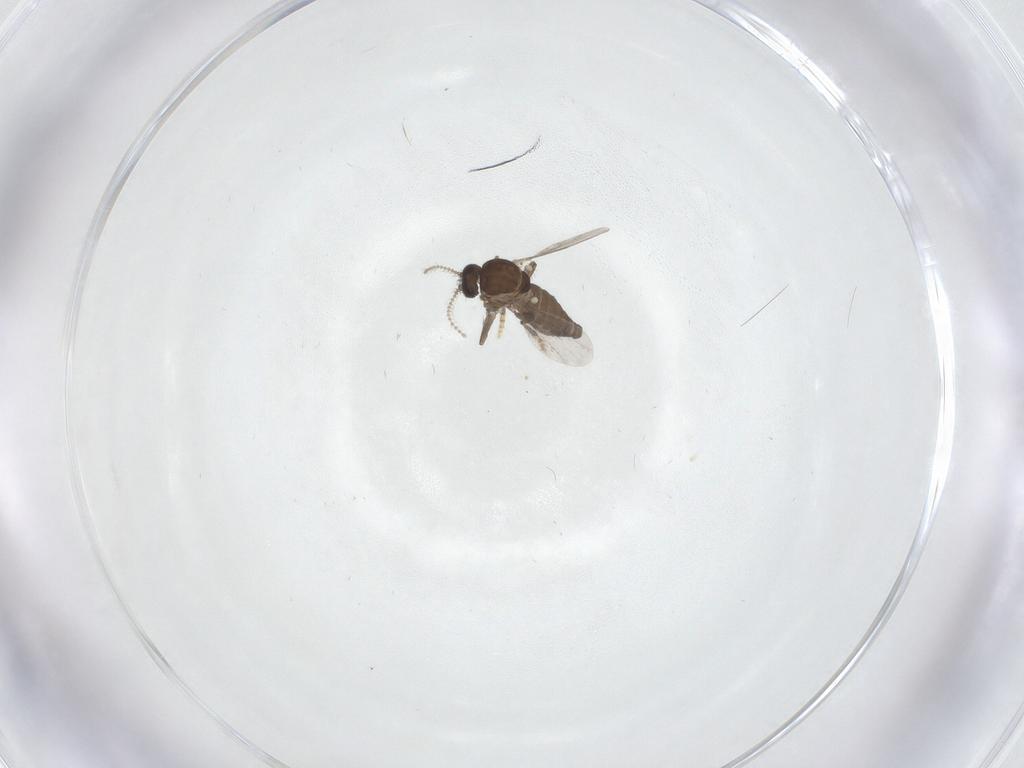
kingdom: Animalia
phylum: Arthropoda
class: Insecta
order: Diptera
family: Ceratopogonidae
